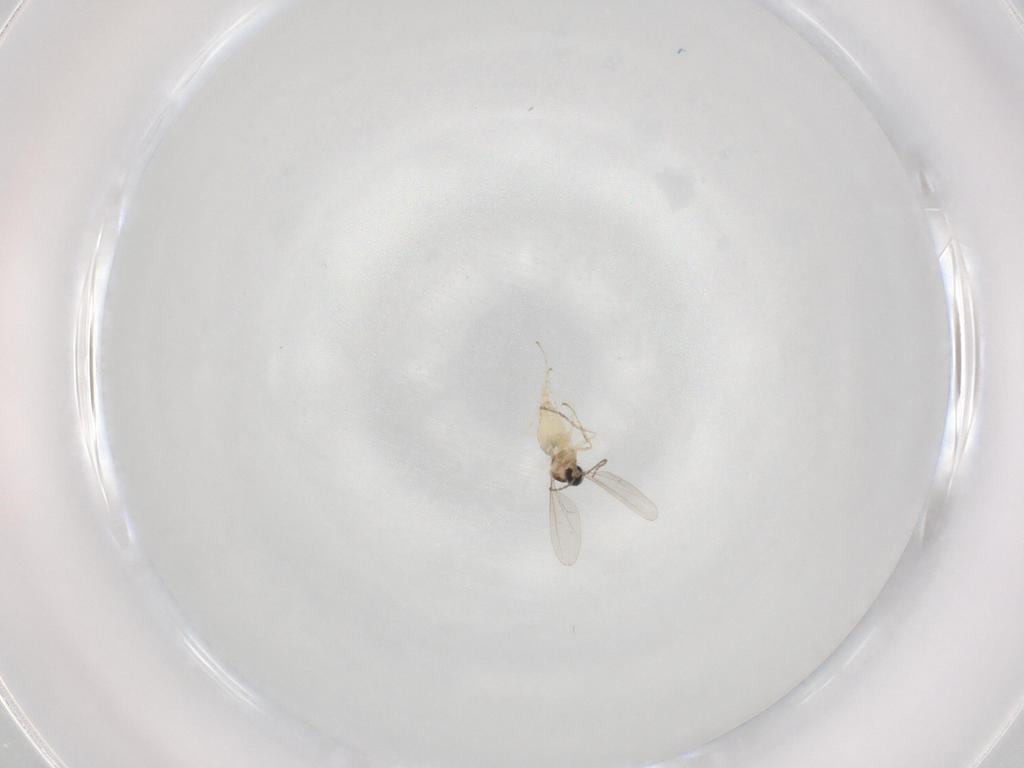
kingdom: Animalia
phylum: Arthropoda
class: Insecta
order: Diptera
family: Cecidomyiidae
